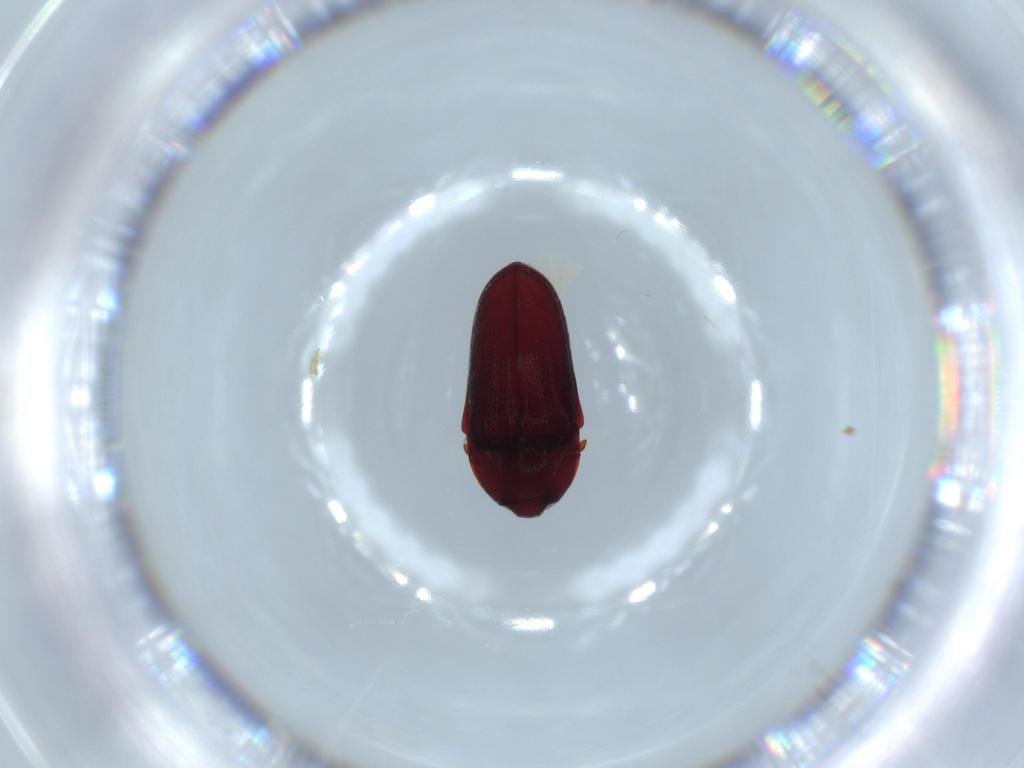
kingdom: Animalia
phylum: Arthropoda
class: Insecta
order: Coleoptera
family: Throscidae
